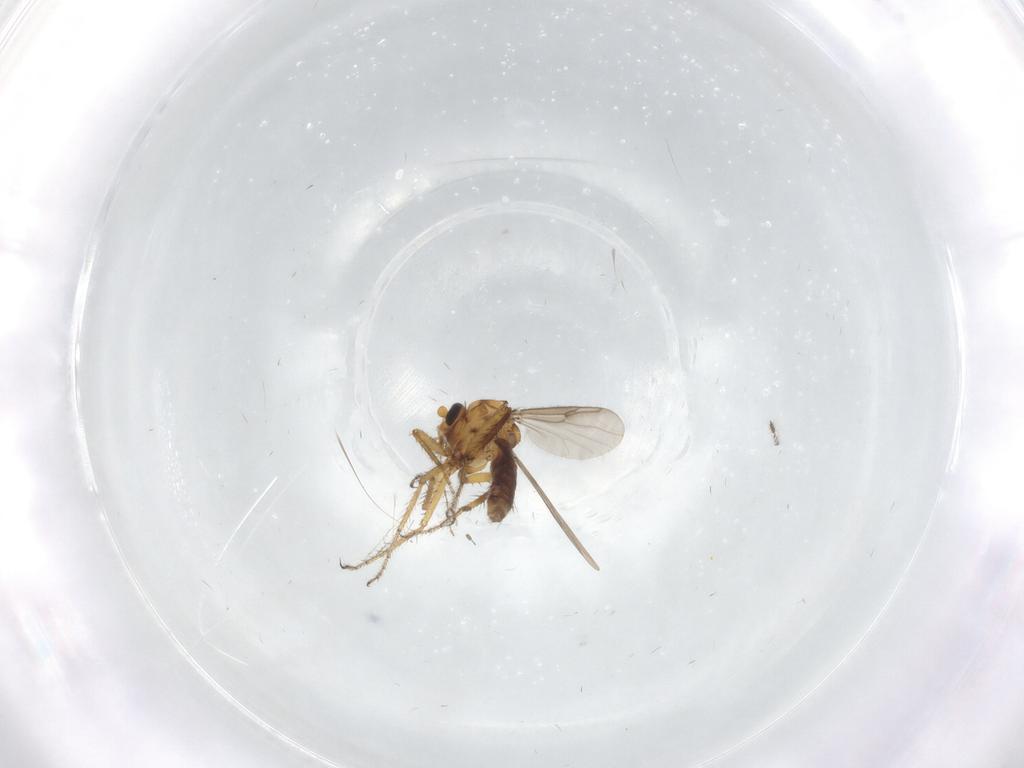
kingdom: Animalia
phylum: Arthropoda
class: Insecta
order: Diptera
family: Ceratopogonidae
